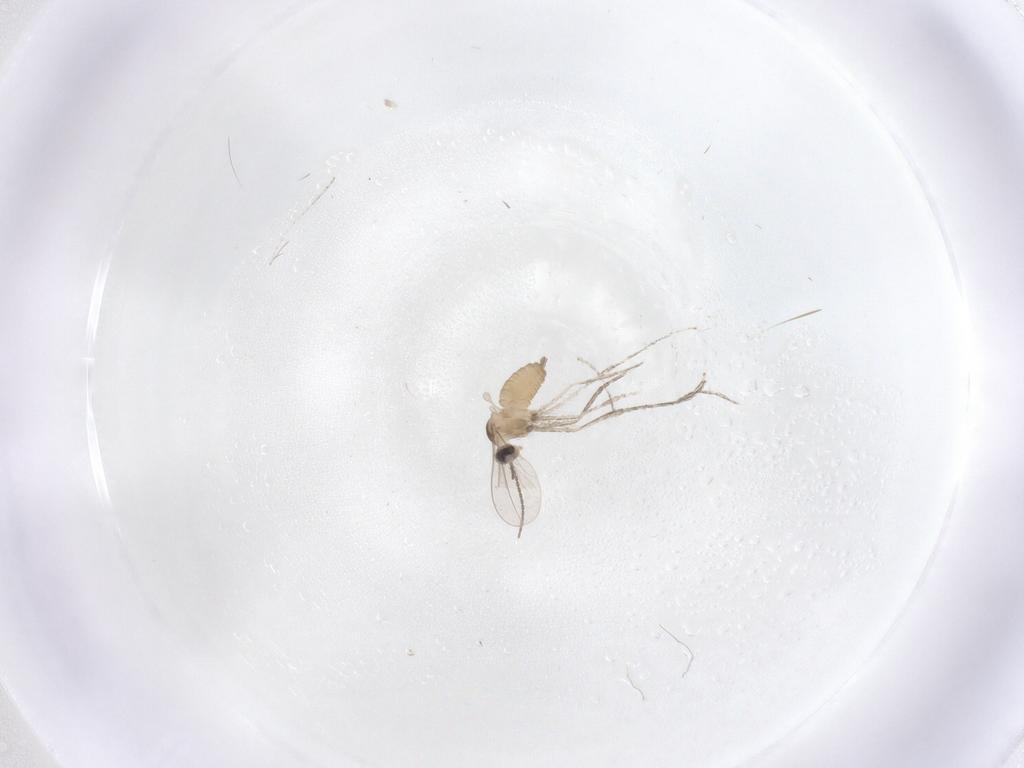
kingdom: Animalia
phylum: Arthropoda
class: Insecta
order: Diptera
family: Cecidomyiidae
